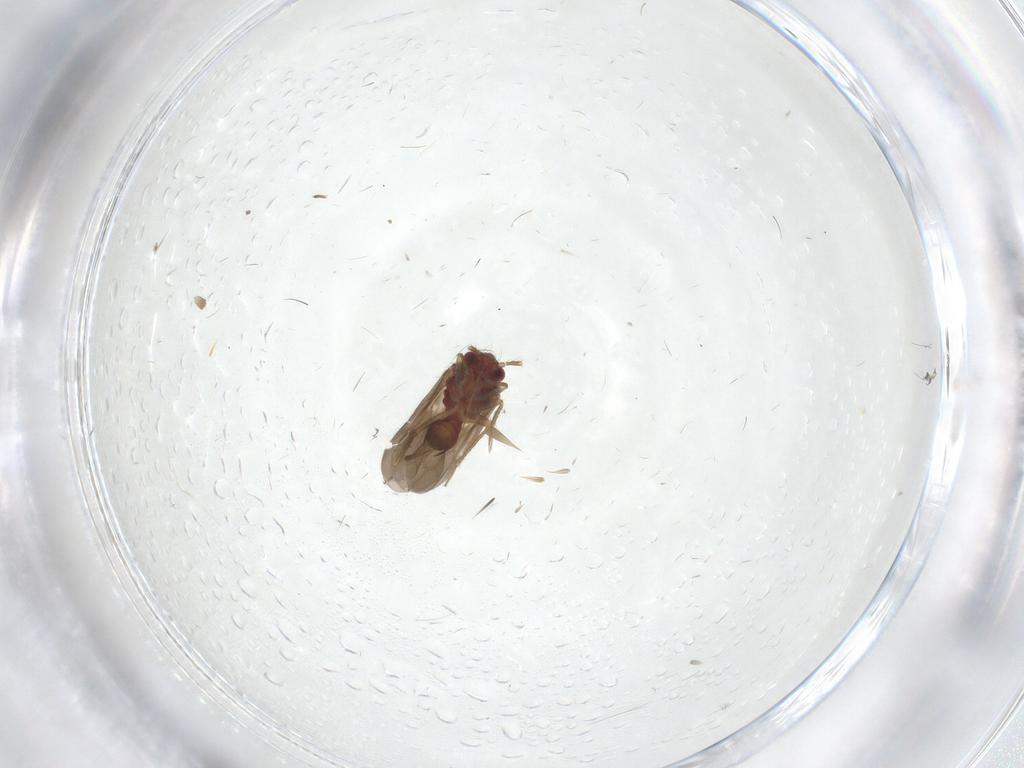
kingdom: Animalia
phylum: Arthropoda
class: Insecta
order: Hemiptera
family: Ceratocombidae
